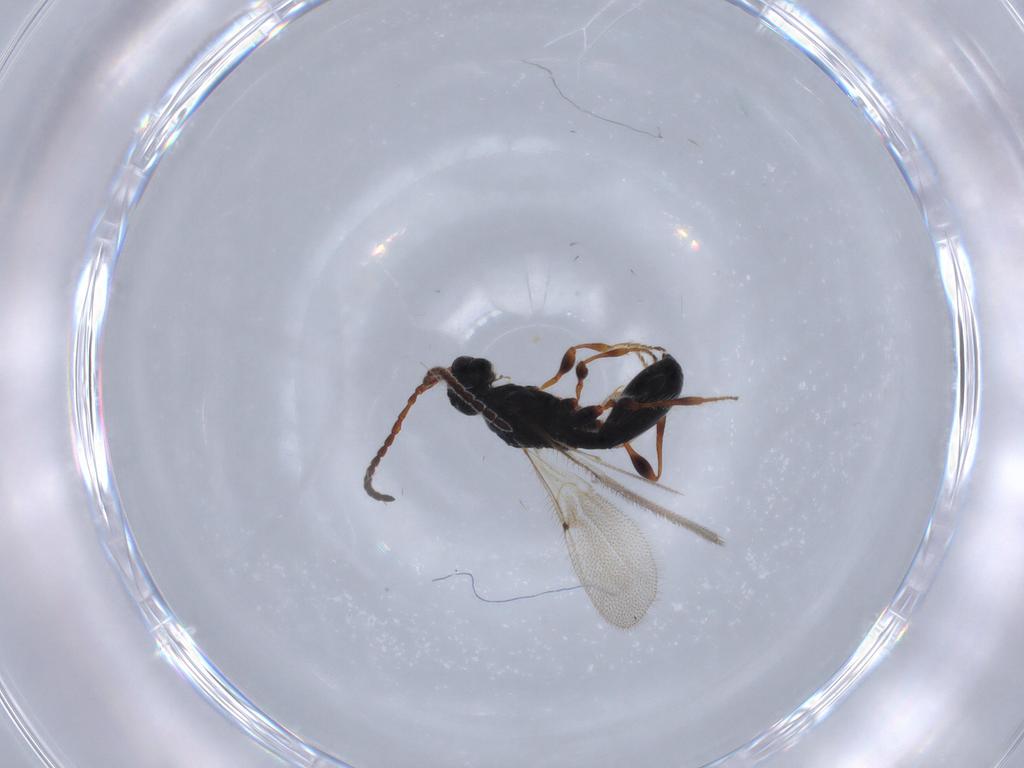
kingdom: Animalia
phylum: Arthropoda
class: Insecta
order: Hymenoptera
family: Diapriidae
